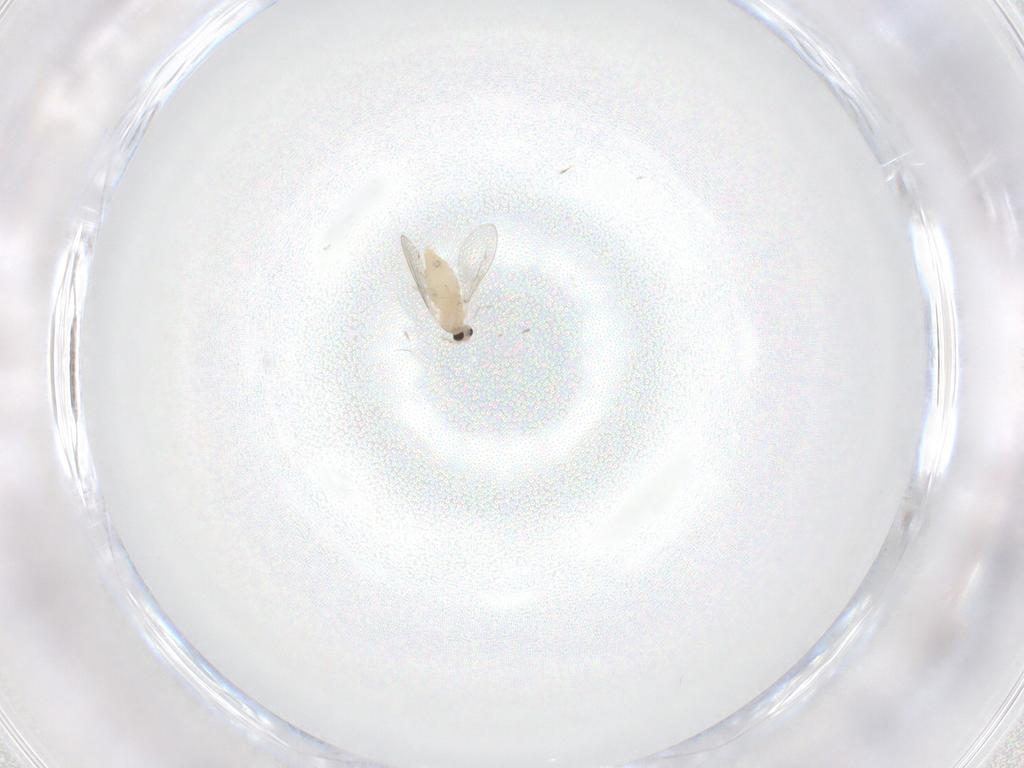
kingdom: Animalia
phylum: Arthropoda
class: Insecta
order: Diptera
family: Cecidomyiidae
